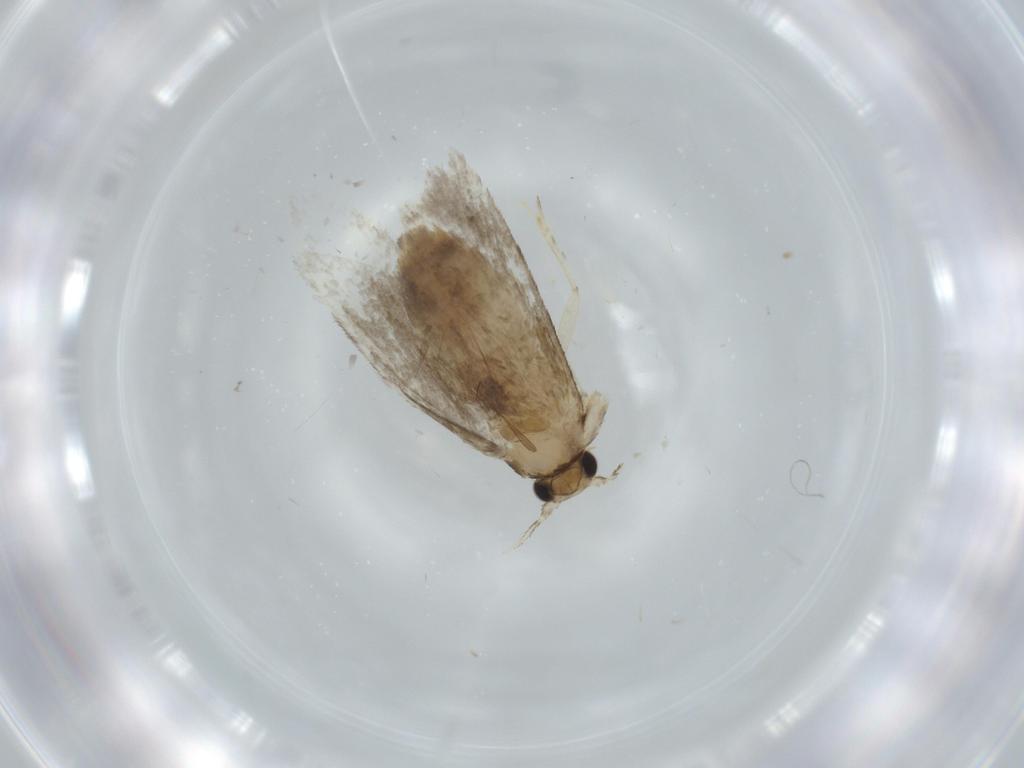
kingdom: Animalia
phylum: Arthropoda
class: Insecta
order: Lepidoptera
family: Tineidae
